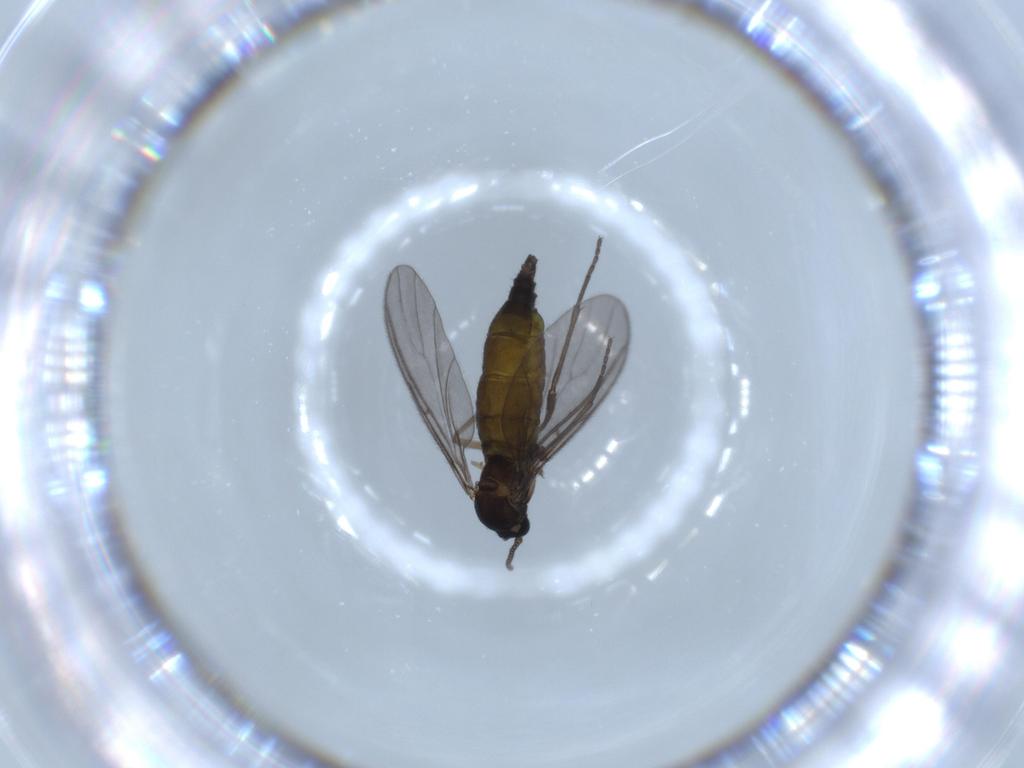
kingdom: Animalia
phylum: Arthropoda
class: Insecta
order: Diptera
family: Sciaridae
